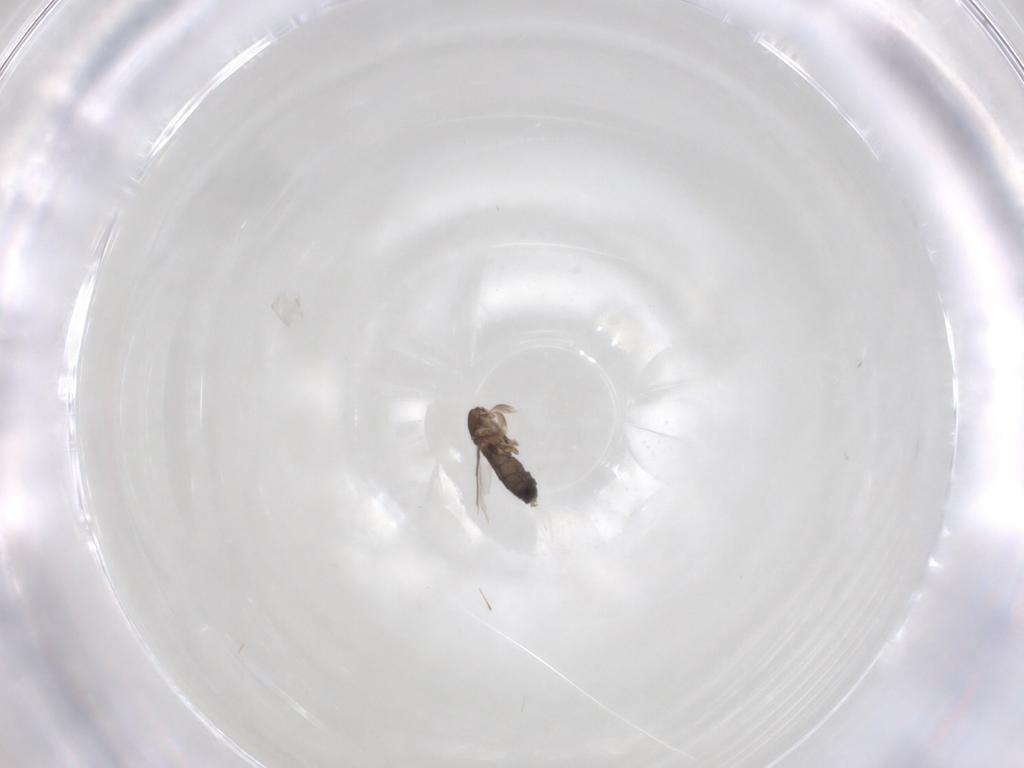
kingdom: Animalia
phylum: Arthropoda
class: Insecta
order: Diptera
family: Phoridae
